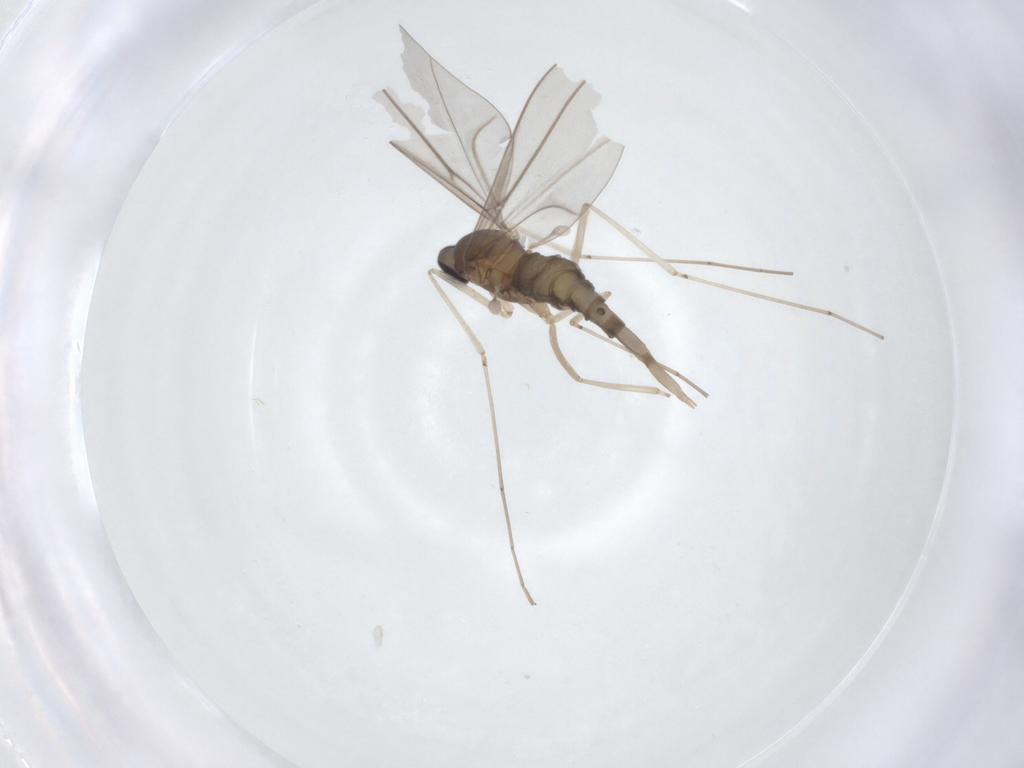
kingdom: Animalia
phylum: Arthropoda
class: Insecta
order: Diptera
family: Cecidomyiidae
